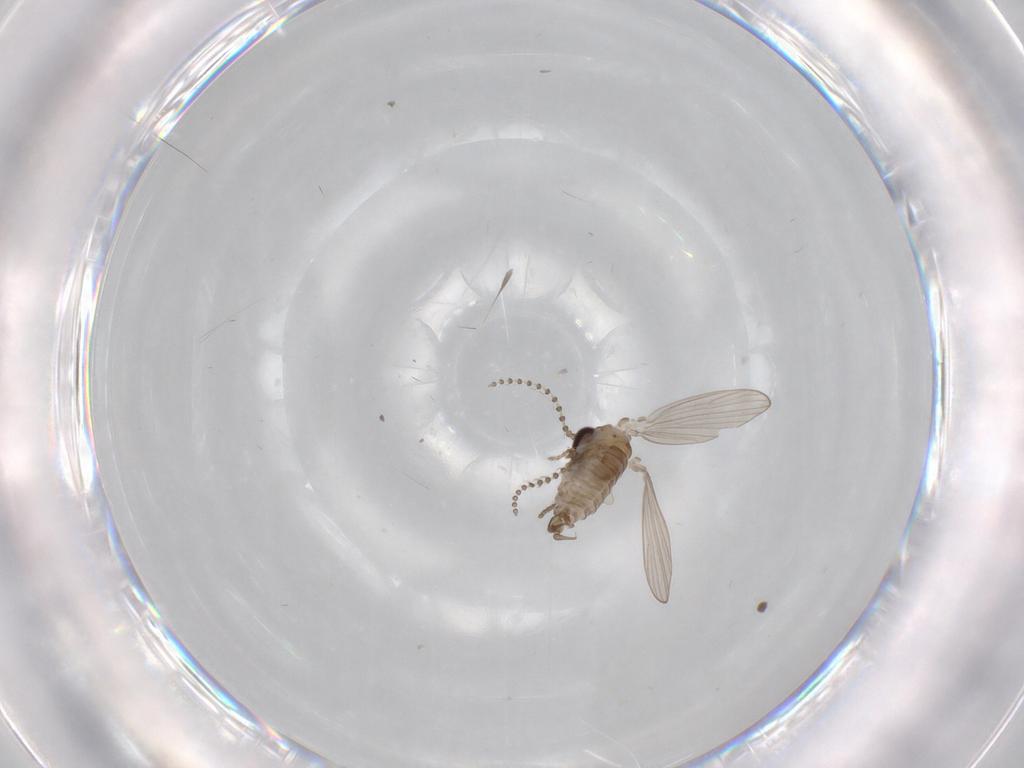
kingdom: Animalia
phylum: Arthropoda
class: Insecta
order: Diptera
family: Psychodidae
